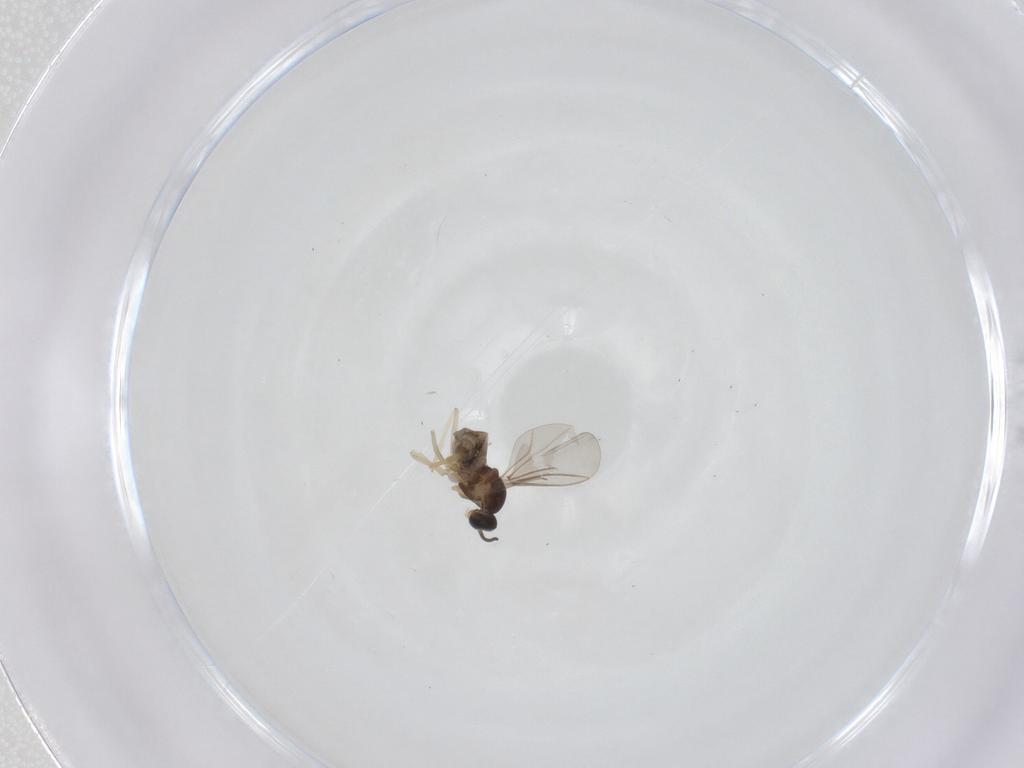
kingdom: Animalia
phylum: Arthropoda
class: Insecta
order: Diptera
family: Cecidomyiidae
